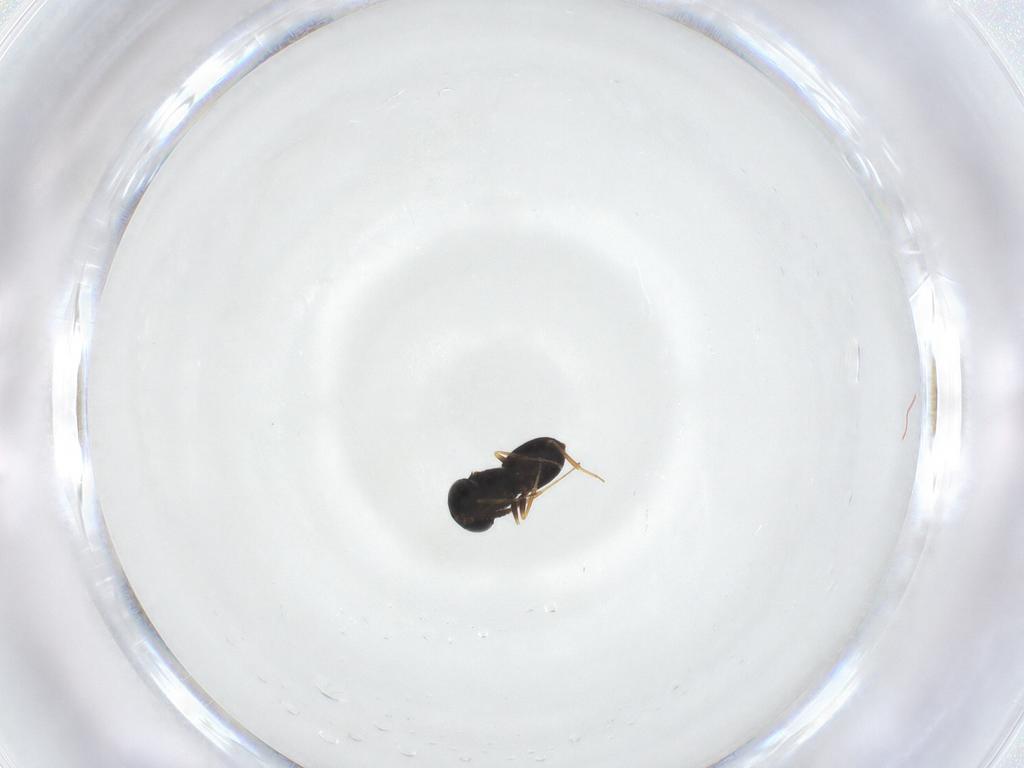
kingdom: Animalia
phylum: Arthropoda
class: Insecta
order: Hymenoptera
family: Scelionidae
